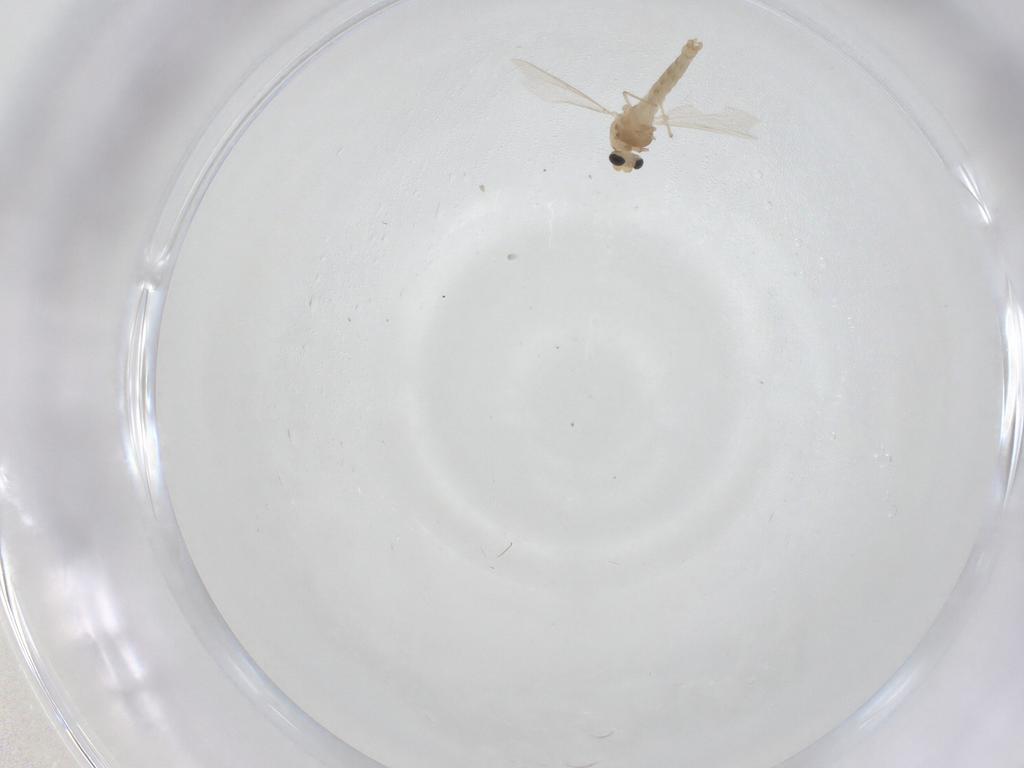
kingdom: Animalia
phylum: Arthropoda
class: Insecta
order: Diptera
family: Chironomidae
